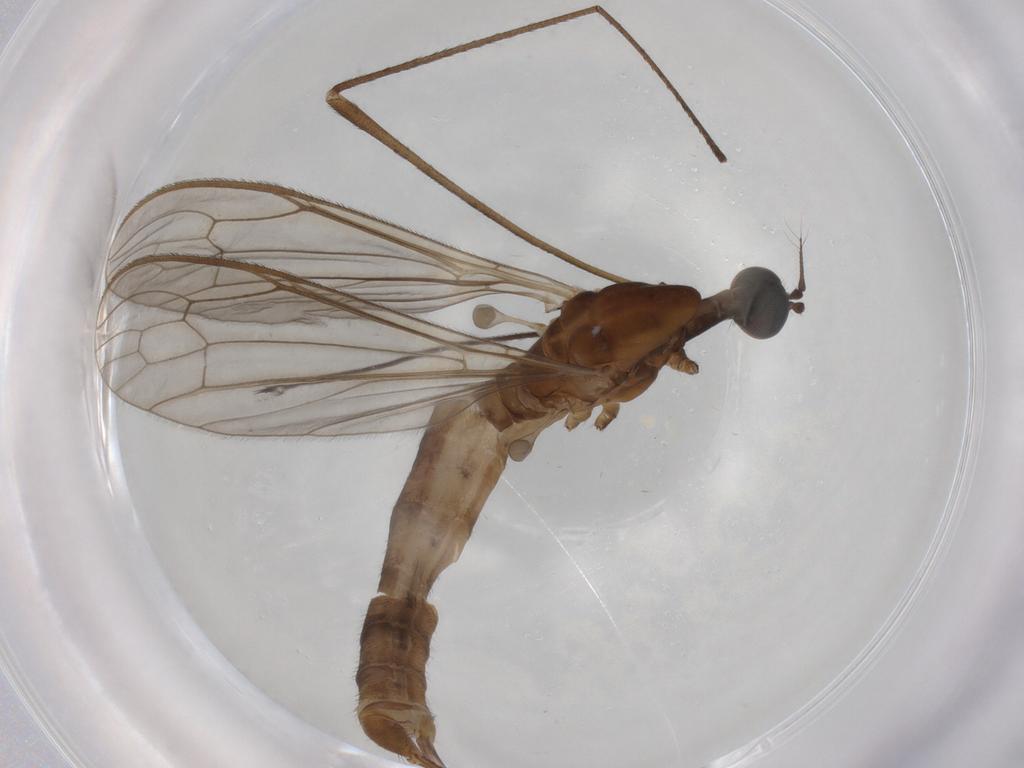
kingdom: Animalia
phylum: Arthropoda
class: Insecta
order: Diptera
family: Limoniidae
